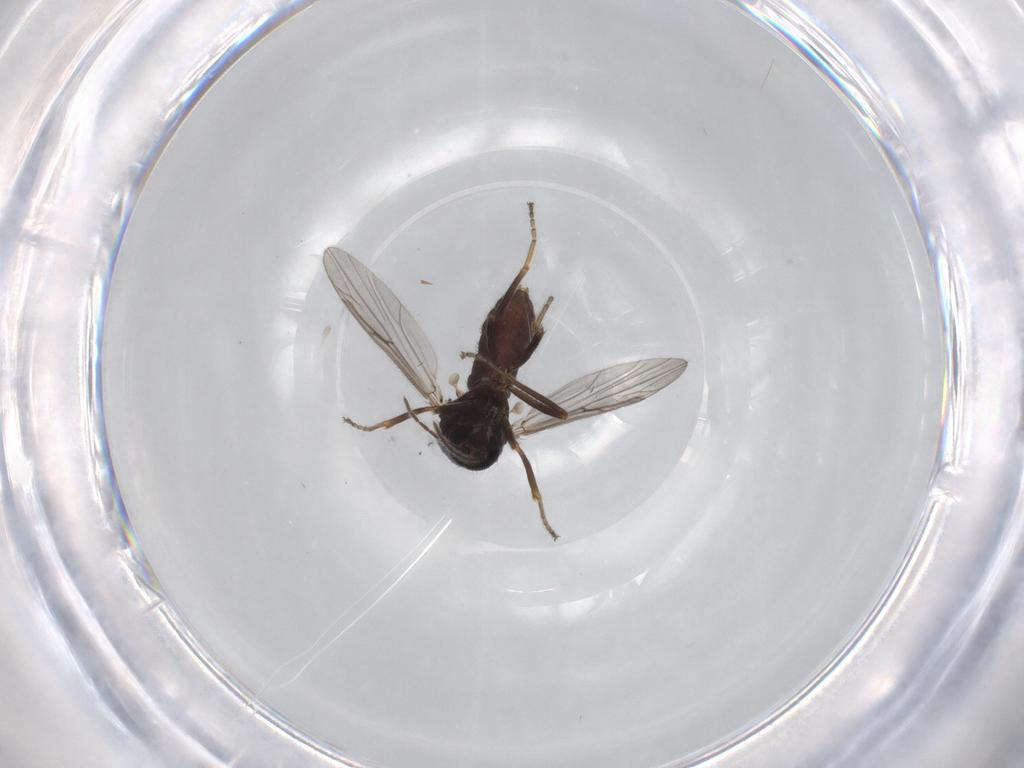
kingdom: Animalia
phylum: Arthropoda
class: Insecta
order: Diptera
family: Ceratopogonidae
